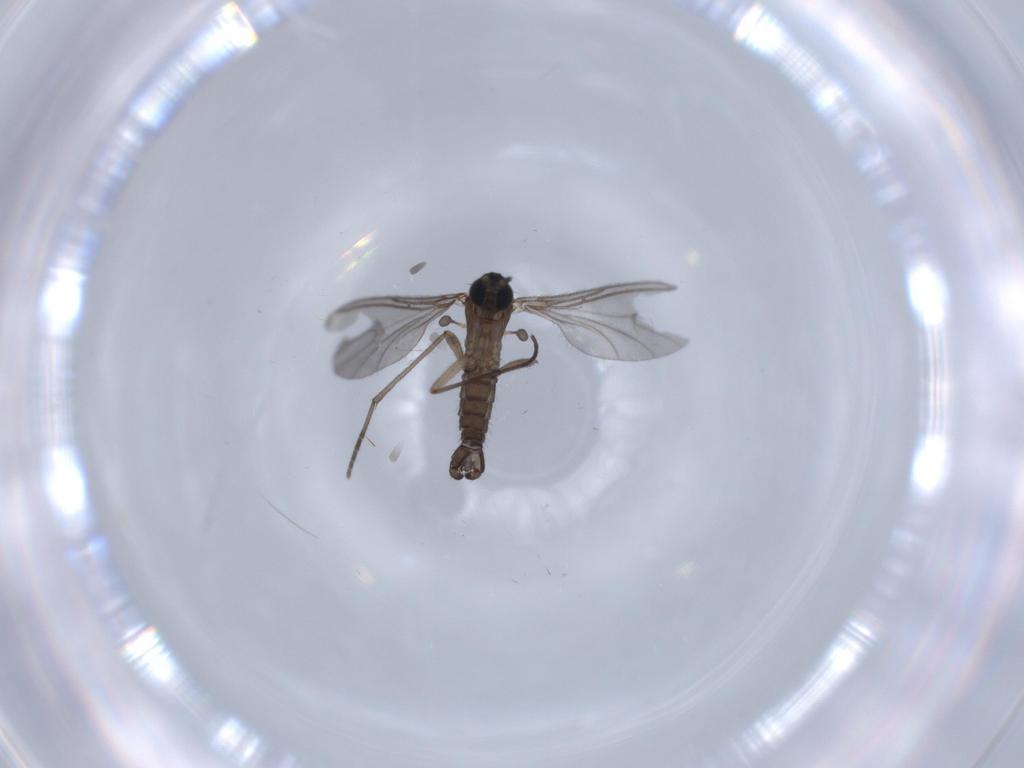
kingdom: Animalia
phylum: Arthropoda
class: Insecta
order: Diptera
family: Sciaridae
